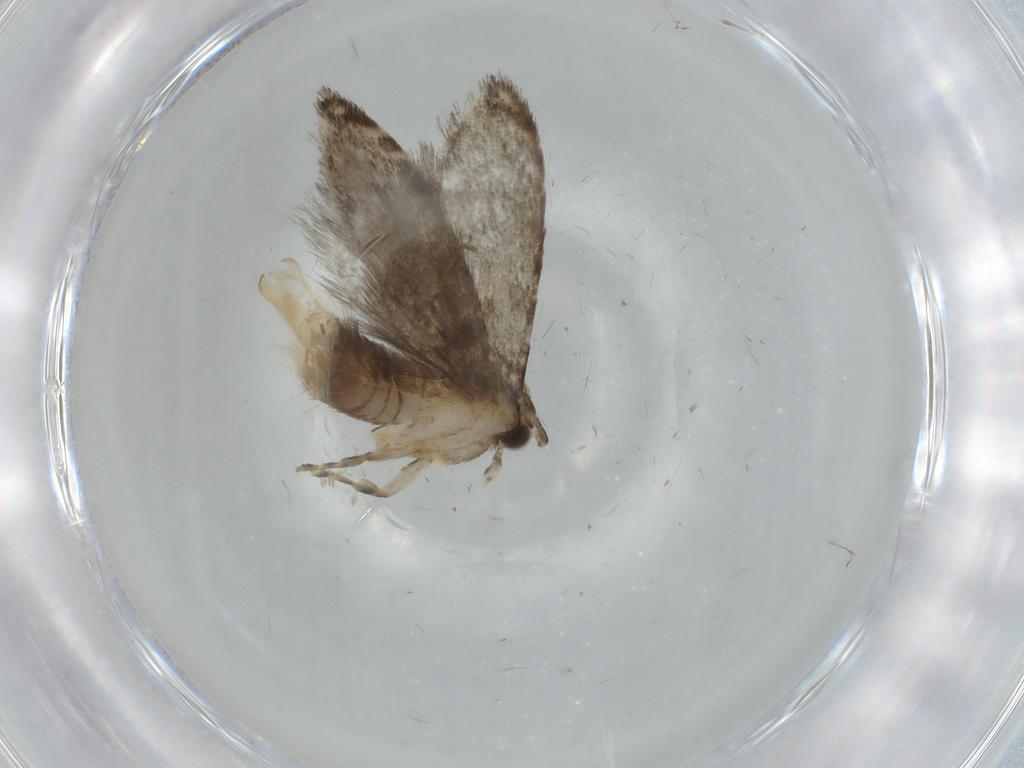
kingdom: Animalia
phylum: Arthropoda
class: Insecta
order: Lepidoptera
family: Tineidae
